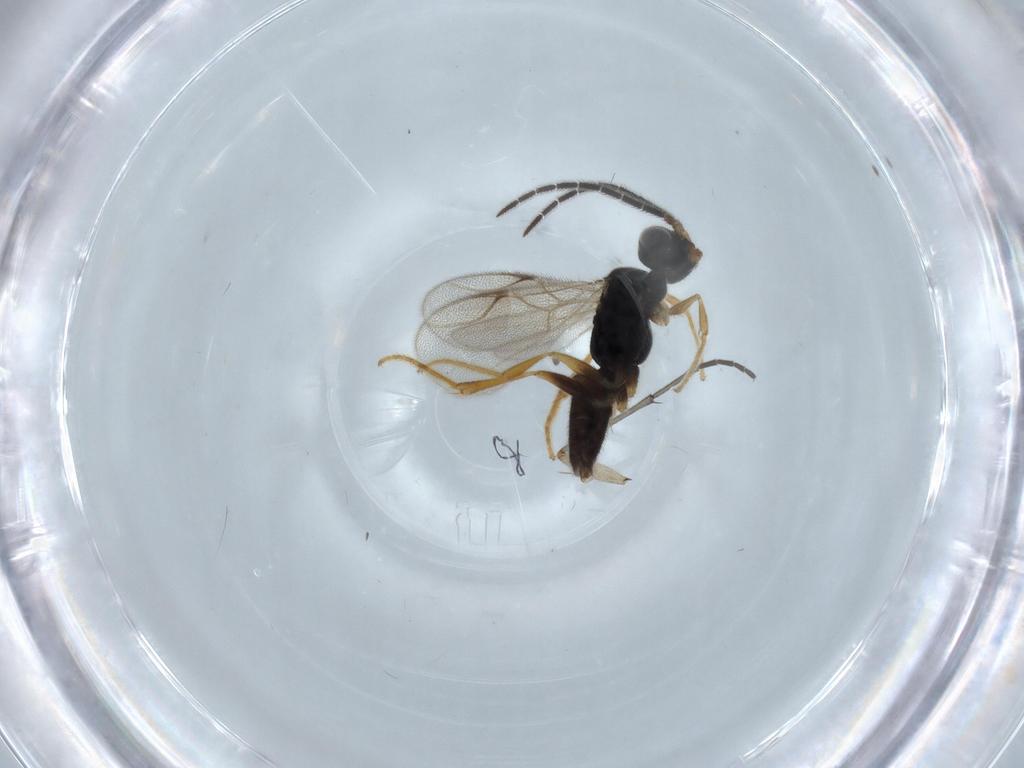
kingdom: Animalia
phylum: Arthropoda
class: Insecta
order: Hymenoptera
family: Dryinidae
